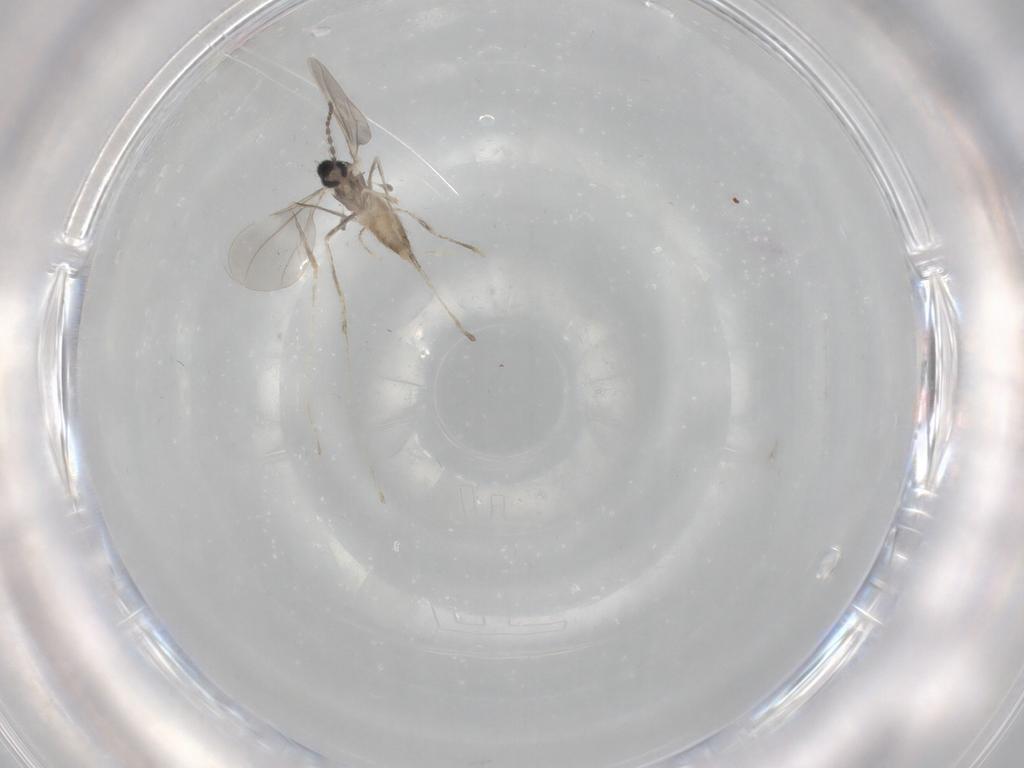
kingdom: Animalia
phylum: Arthropoda
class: Insecta
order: Diptera
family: Cecidomyiidae
